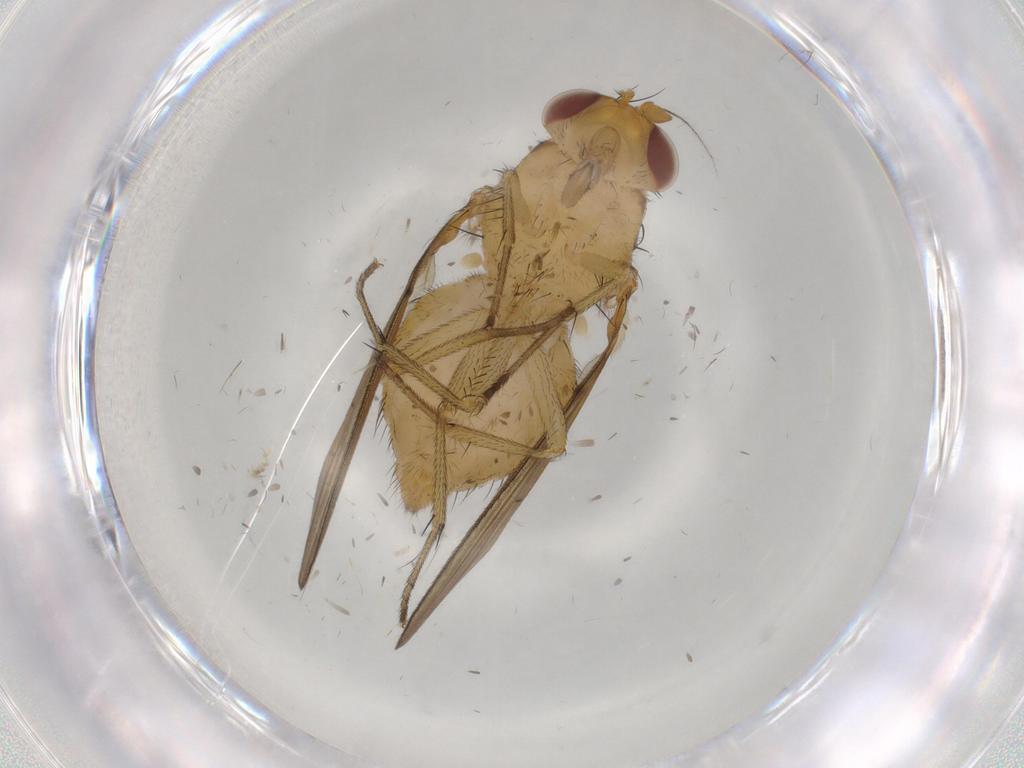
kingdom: Animalia
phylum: Arthropoda
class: Insecta
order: Diptera
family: Lauxaniidae
